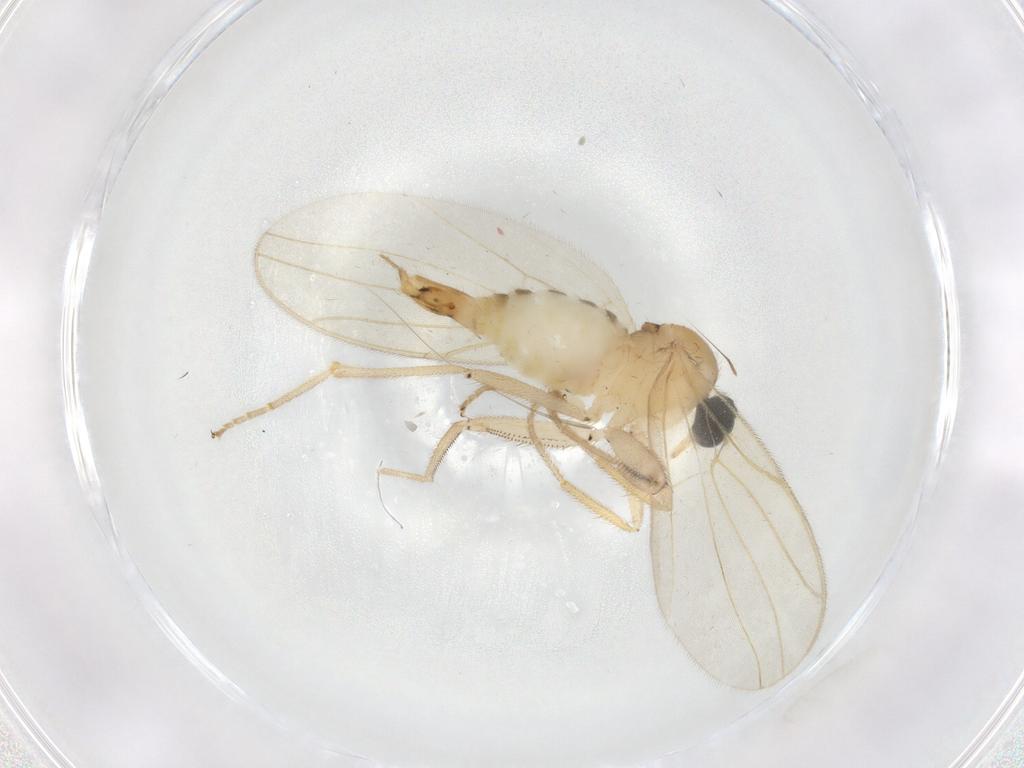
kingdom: Animalia
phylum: Arthropoda
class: Insecta
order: Diptera
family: Hybotidae
